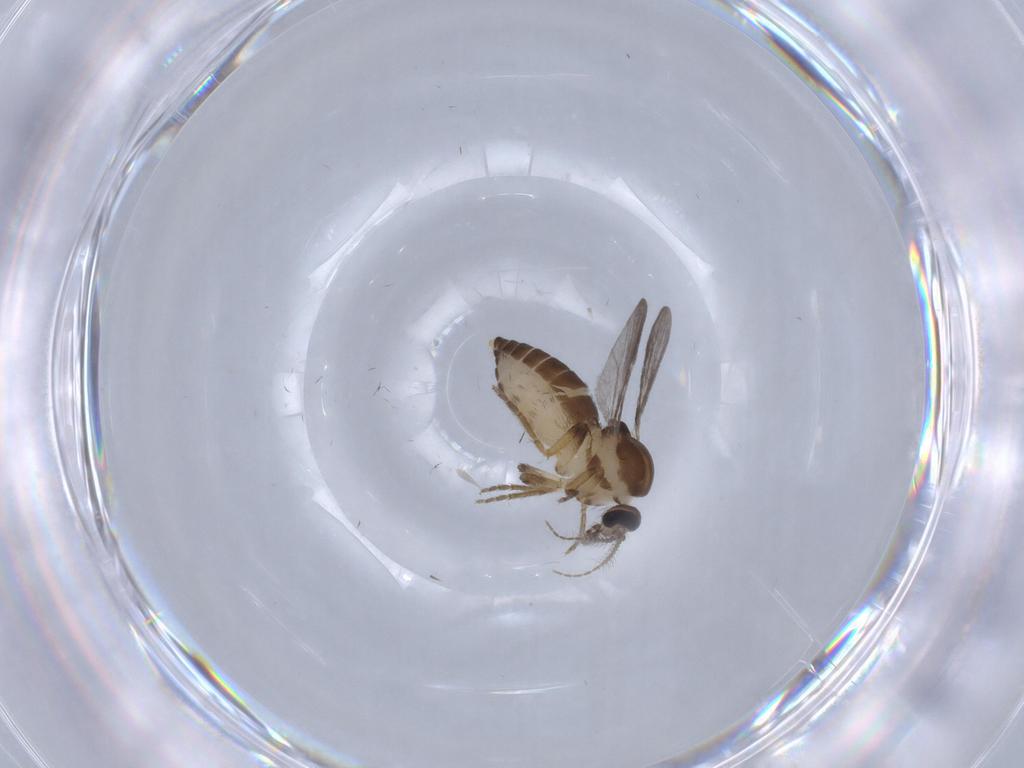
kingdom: Animalia
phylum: Arthropoda
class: Insecta
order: Diptera
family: Ceratopogonidae
